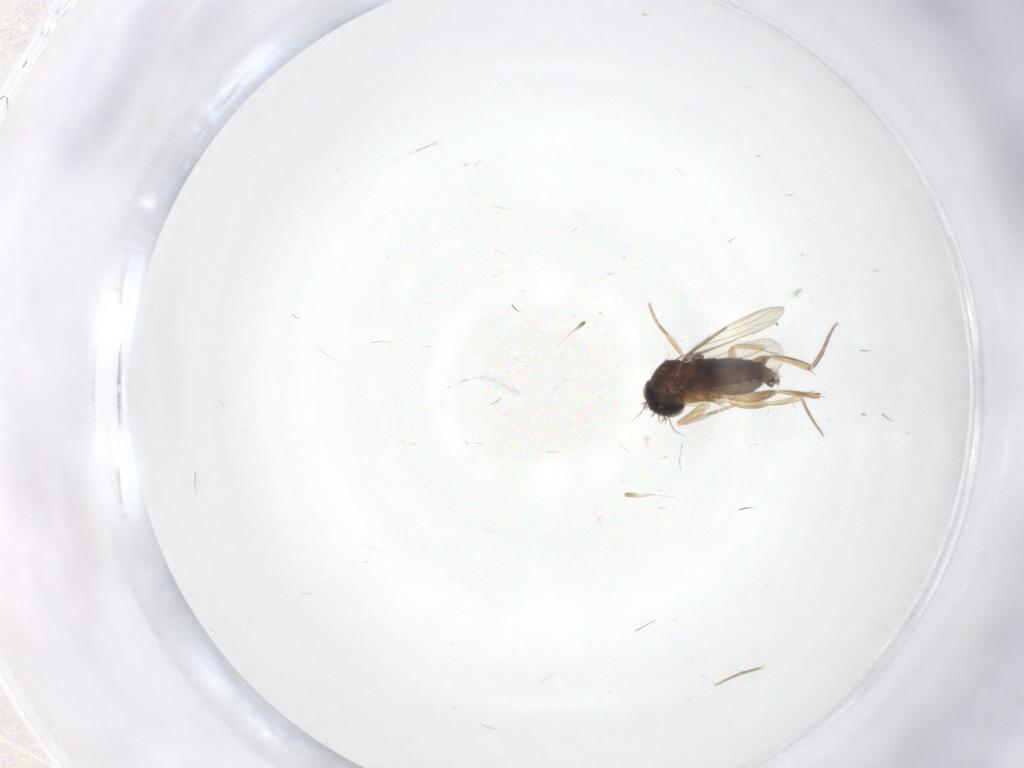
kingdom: Animalia
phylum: Arthropoda
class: Insecta
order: Diptera
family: Phoridae
